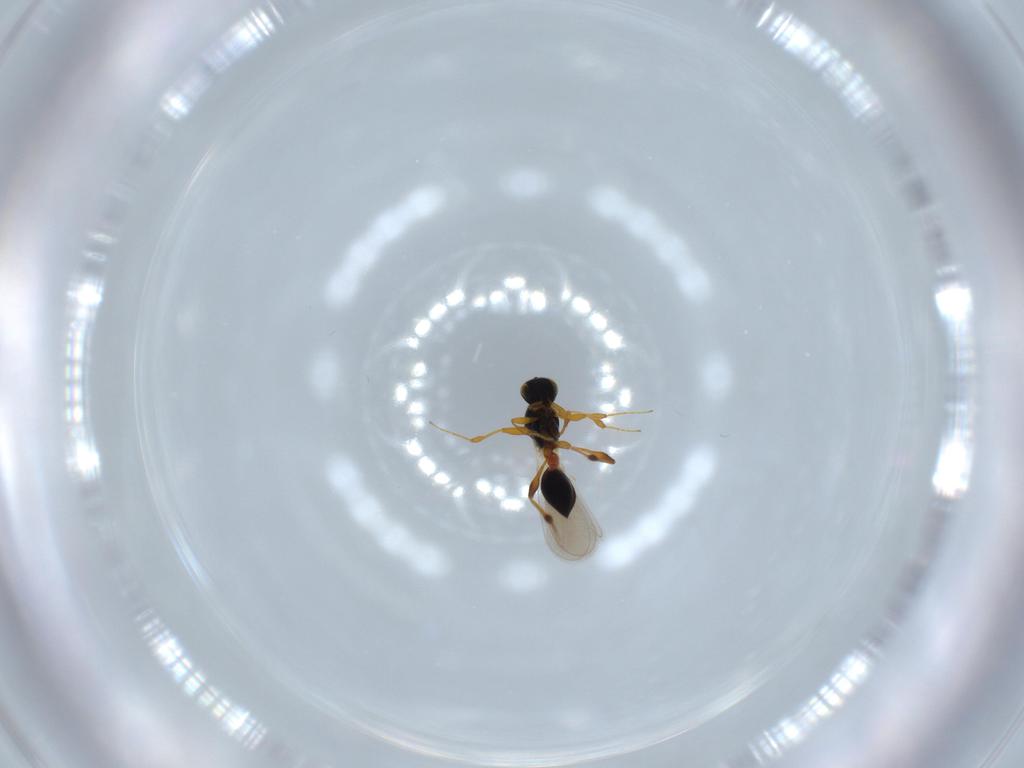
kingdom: Animalia
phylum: Arthropoda
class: Insecta
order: Hymenoptera
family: Platygastridae
